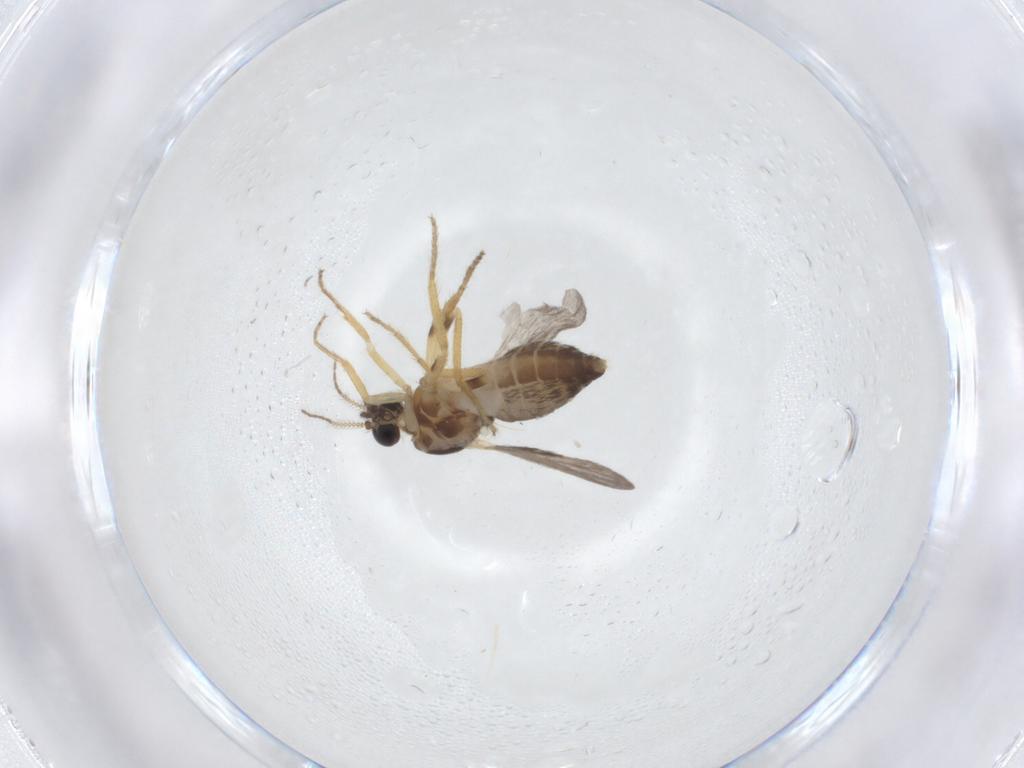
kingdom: Animalia
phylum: Arthropoda
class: Insecta
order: Diptera
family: Ceratopogonidae
